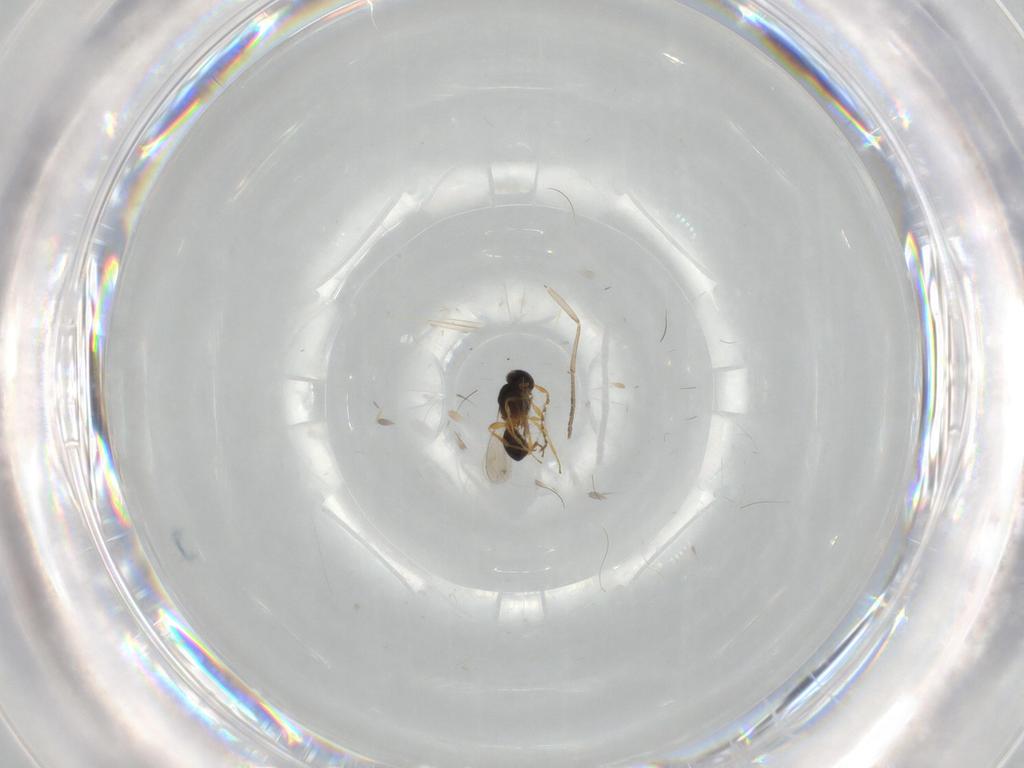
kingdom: Animalia
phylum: Arthropoda
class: Insecta
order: Hymenoptera
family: Platygastridae
